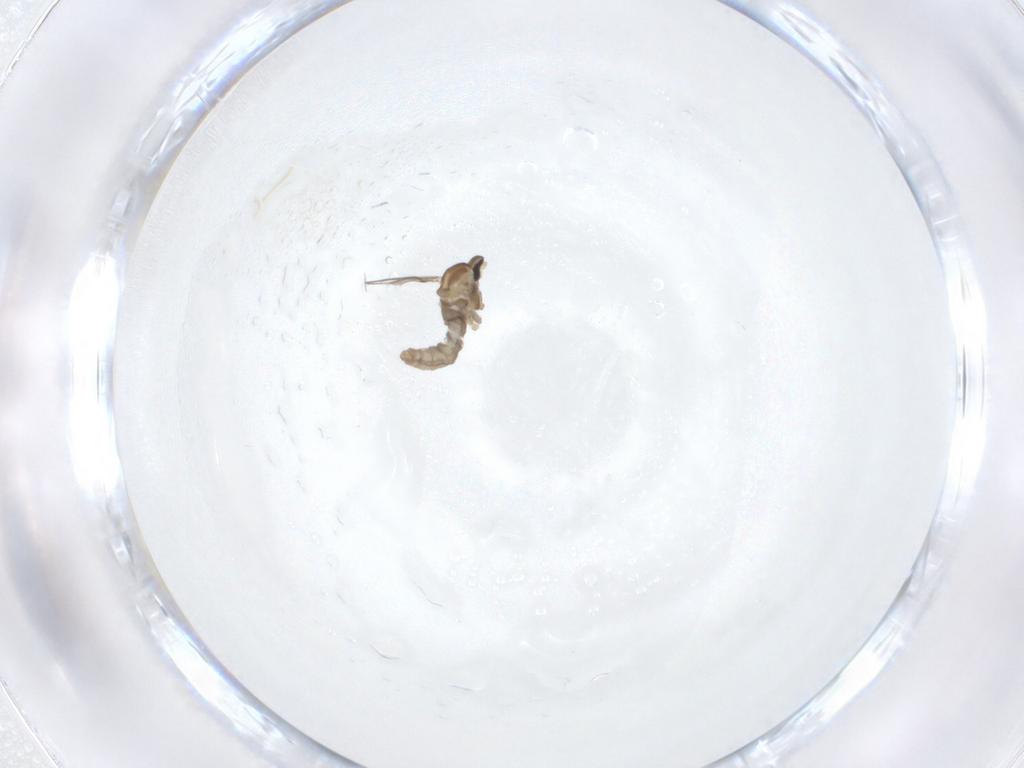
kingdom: Animalia
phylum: Arthropoda
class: Insecta
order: Diptera
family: Cecidomyiidae
